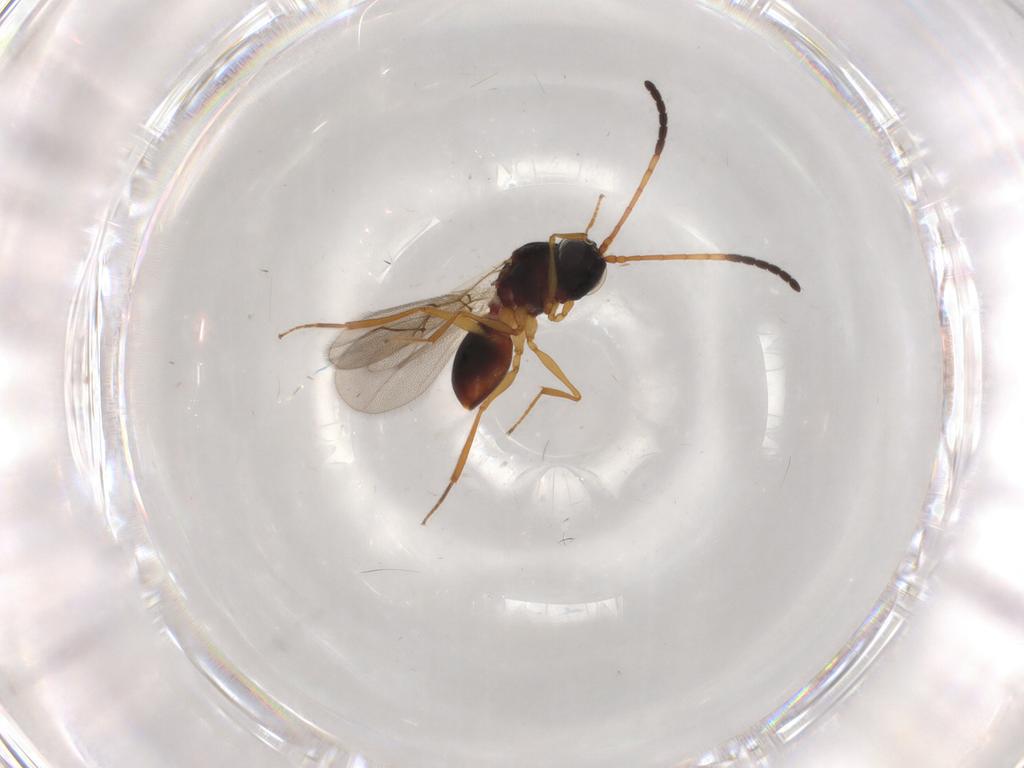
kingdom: Animalia
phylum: Arthropoda
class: Insecta
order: Hymenoptera
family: Figitidae
